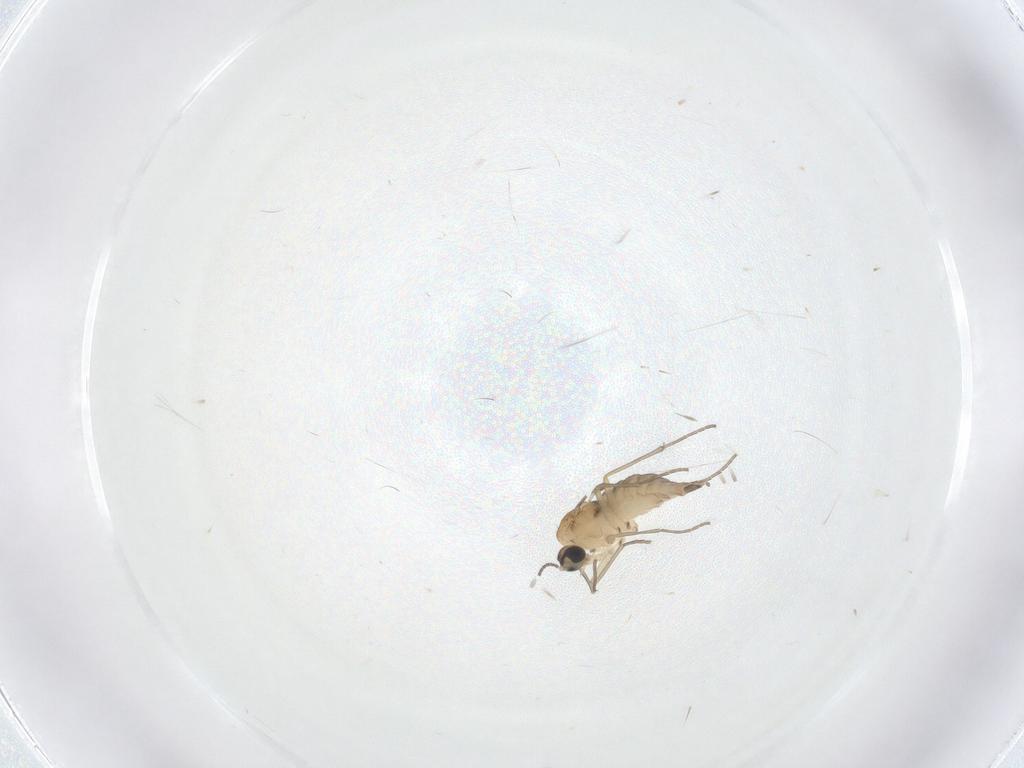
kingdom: Animalia
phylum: Arthropoda
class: Insecta
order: Diptera
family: Sciaridae
